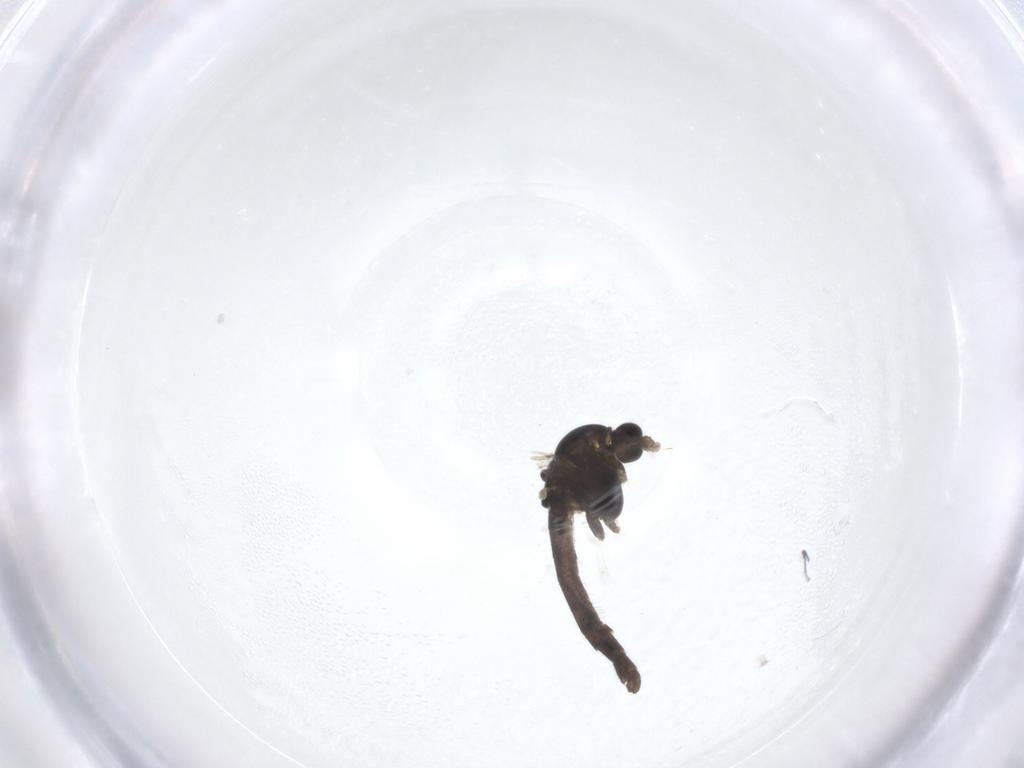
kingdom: Animalia
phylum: Arthropoda
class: Insecta
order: Diptera
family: Chironomidae
